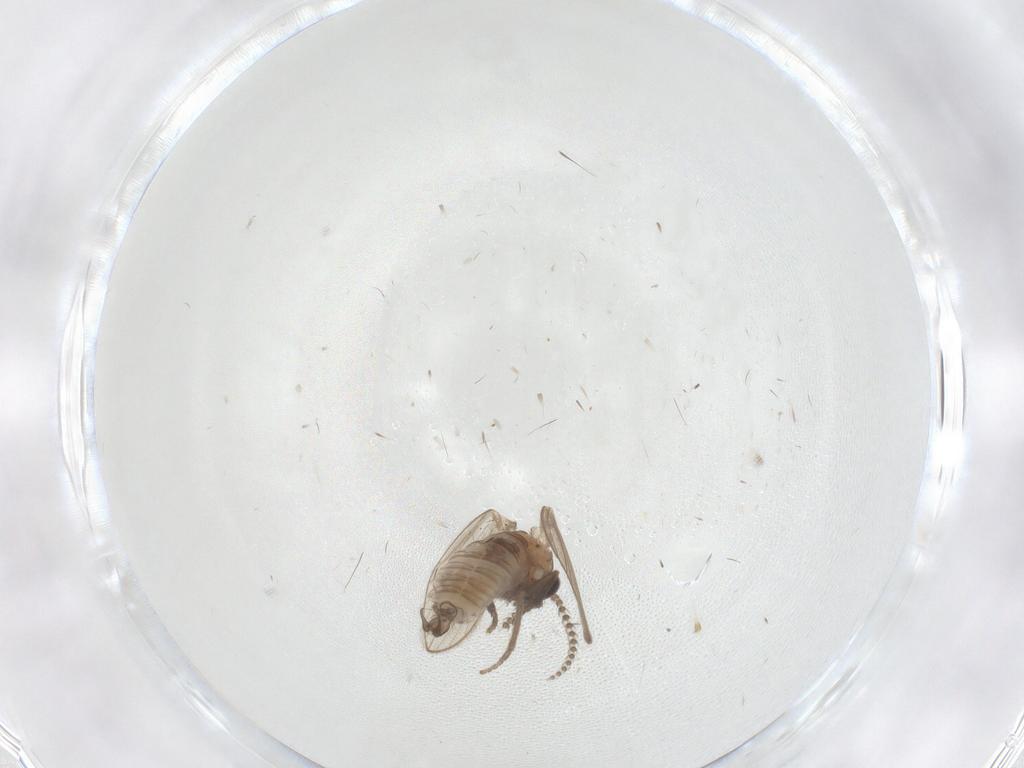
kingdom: Animalia
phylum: Arthropoda
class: Insecta
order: Diptera
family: Psychodidae
